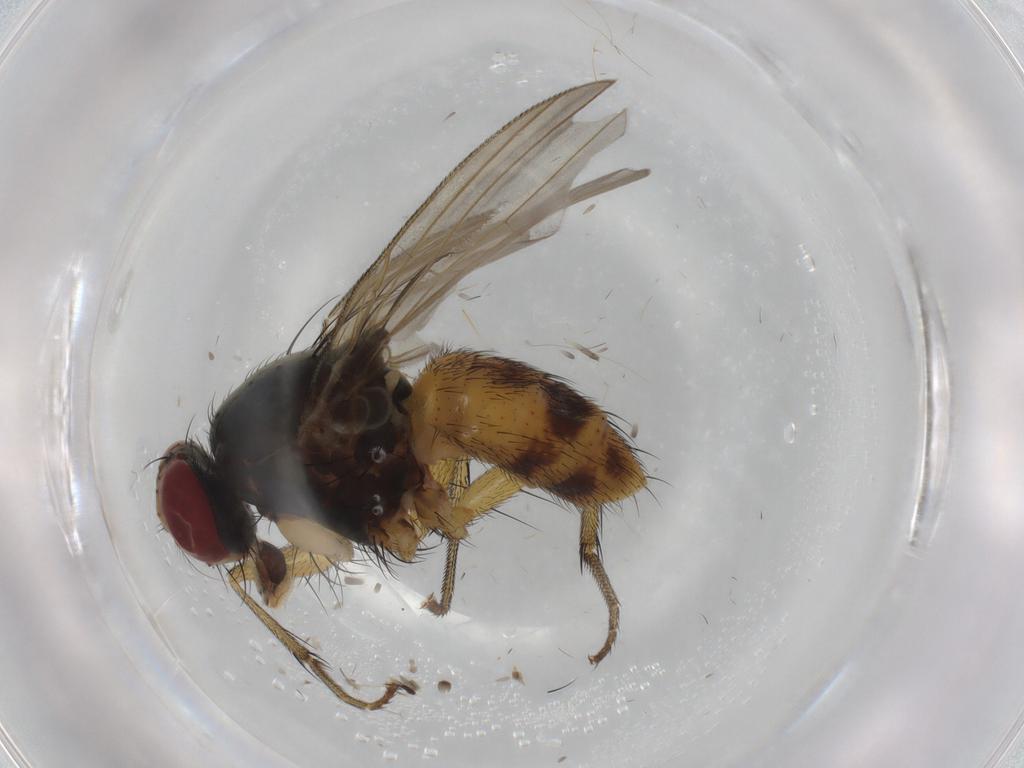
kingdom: Animalia
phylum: Arthropoda
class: Insecta
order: Diptera
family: Muscidae
